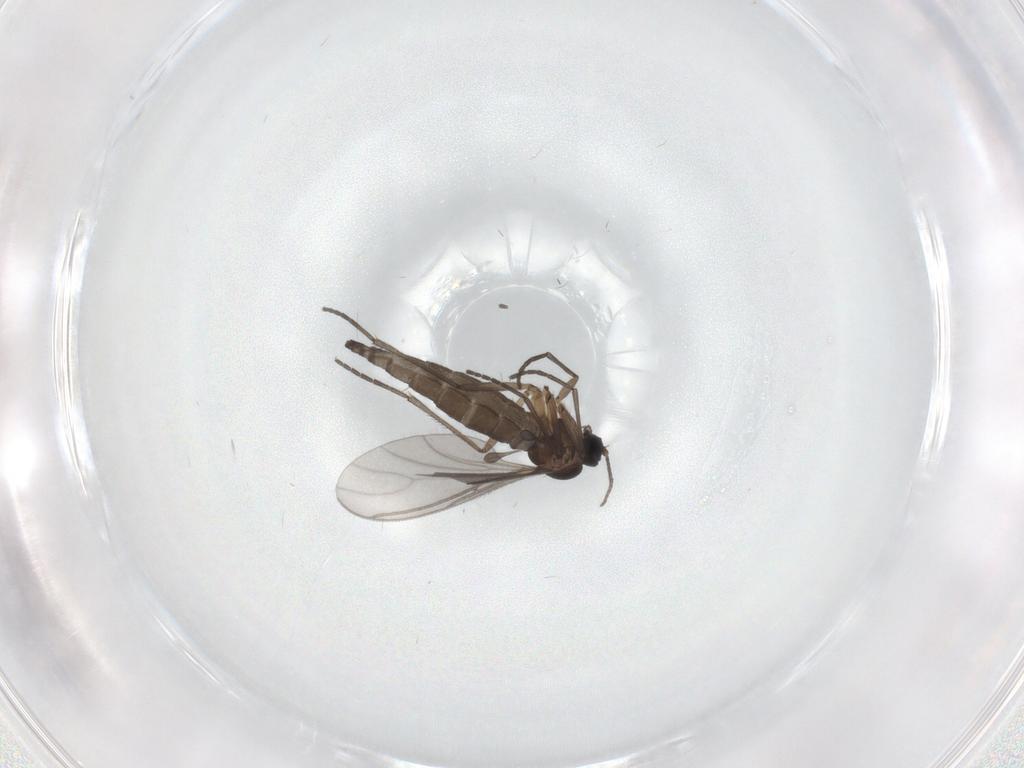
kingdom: Animalia
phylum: Arthropoda
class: Insecta
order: Diptera
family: Sciaridae
